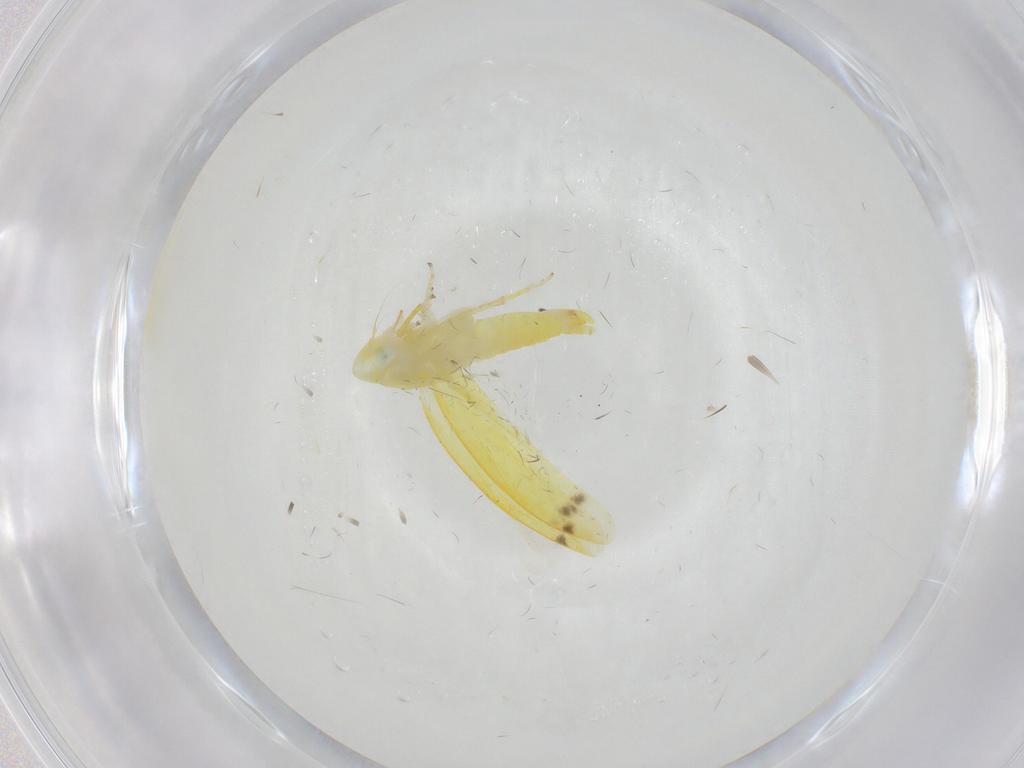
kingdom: Animalia
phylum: Arthropoda
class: Insecta
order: Hemiptera
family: Cicadellidae
